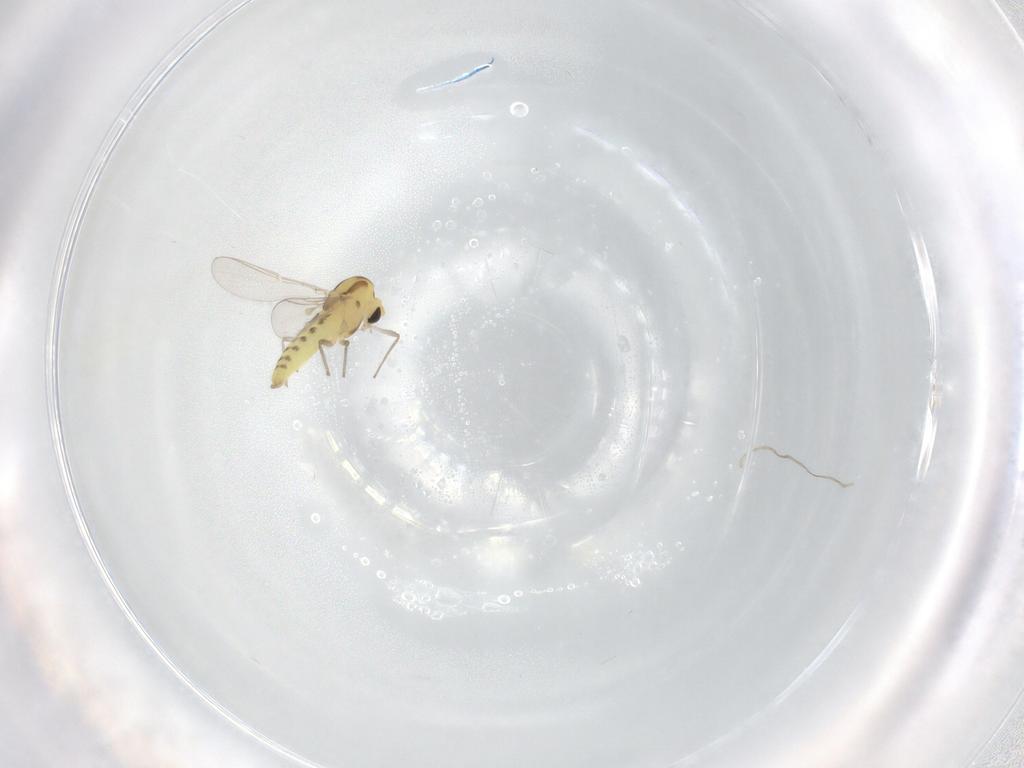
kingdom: Animalia
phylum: Arthropoda
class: Insecta
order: Diptera
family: Chironomidae
